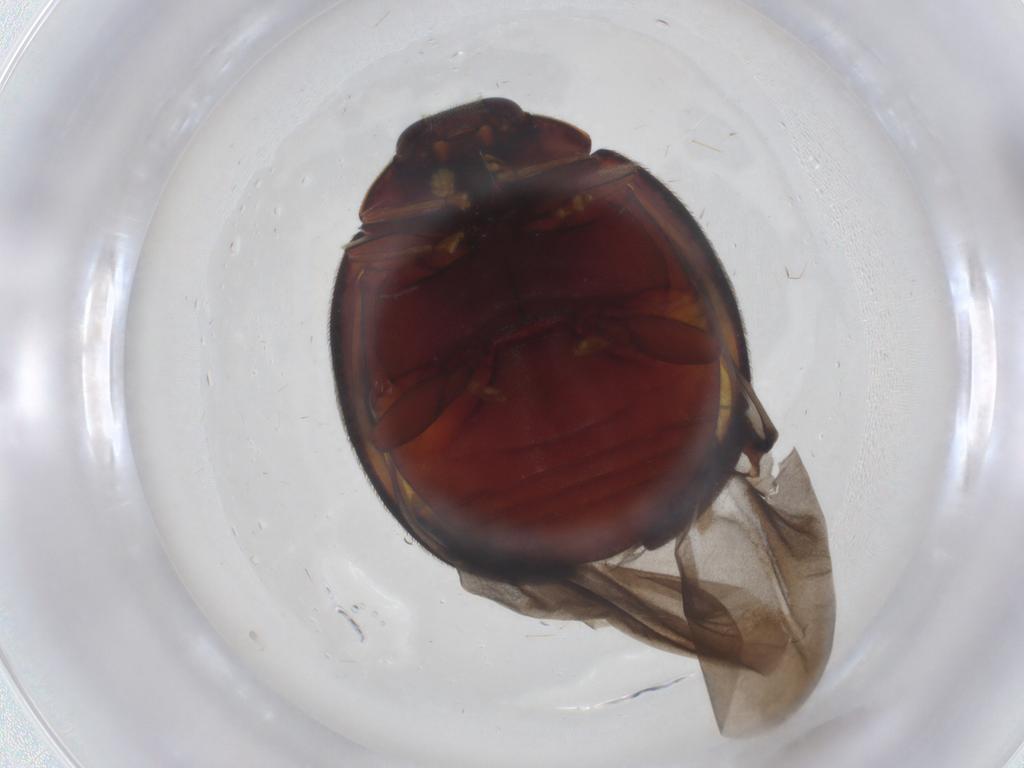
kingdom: Animalia
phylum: Arthropoda
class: Insecta
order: Coleoptera
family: Coccinellidae
